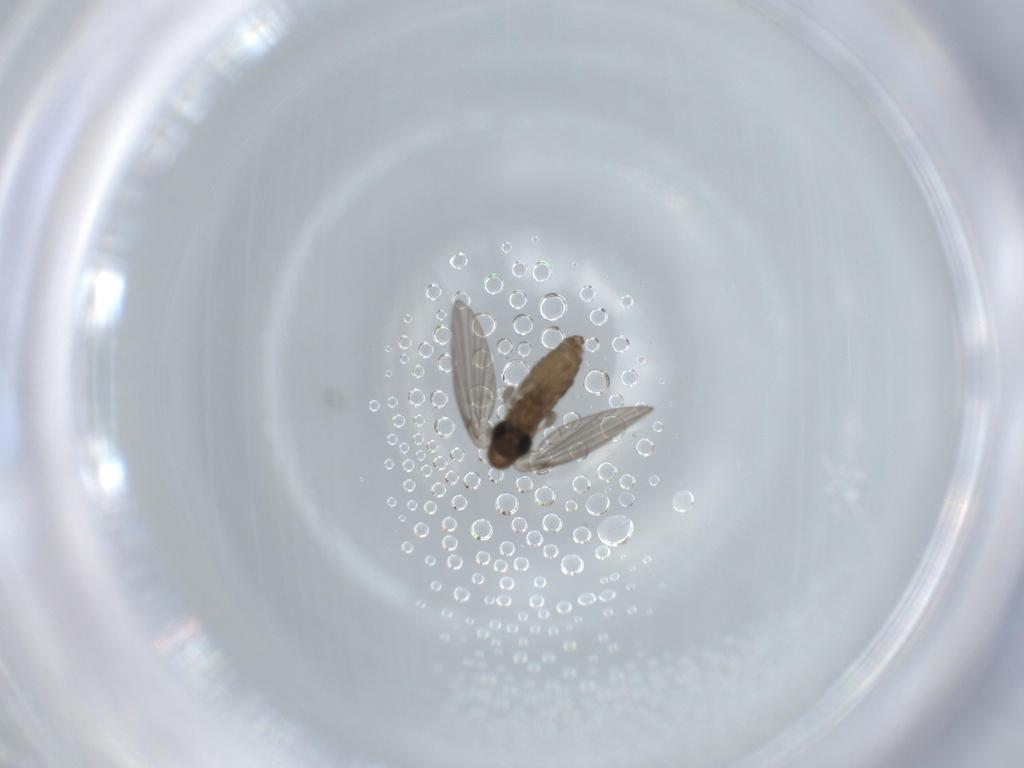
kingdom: Animalia
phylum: Arthropoda
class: Insecta
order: Diptera
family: Psychodidae
